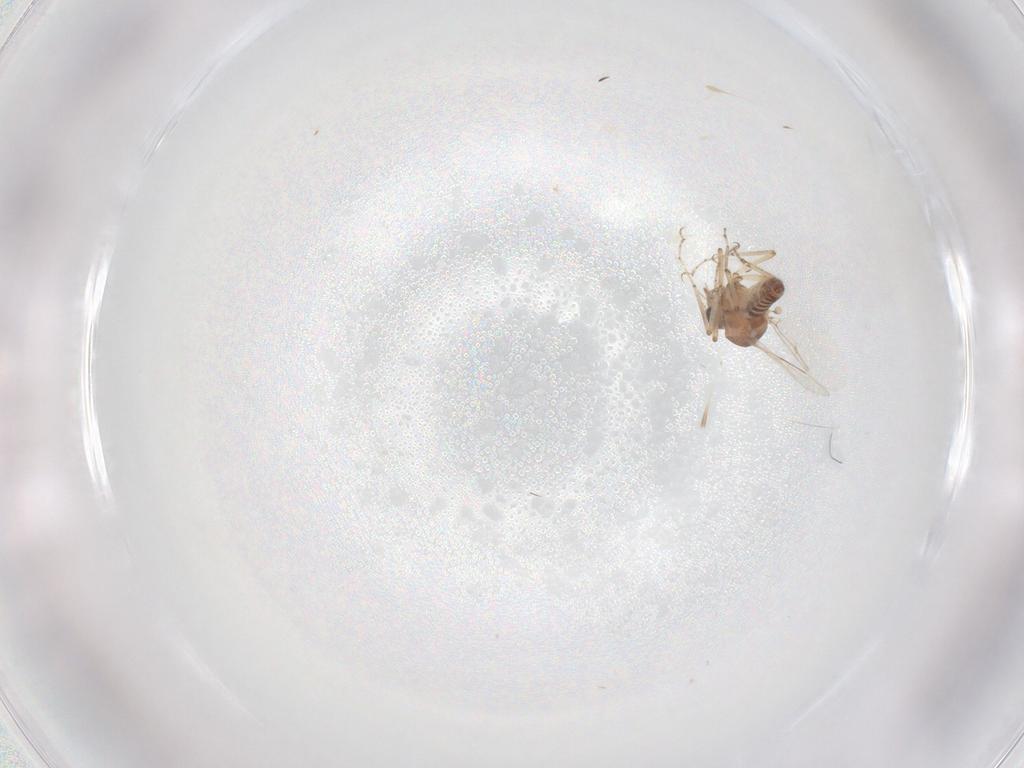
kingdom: Animalia
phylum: Arthropoda
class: Insecta
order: Diptera
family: Ceratopogonidae
